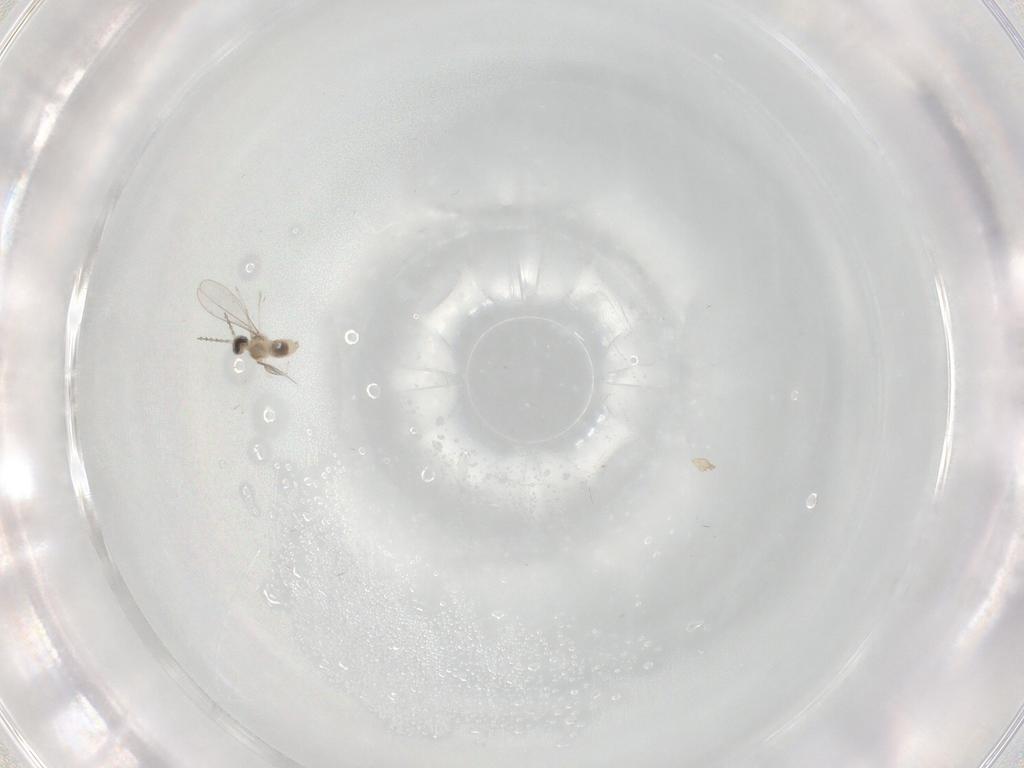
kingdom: Animalia
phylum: Arthropoda
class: Insecta
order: Diptera
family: Cecidomyiidae
